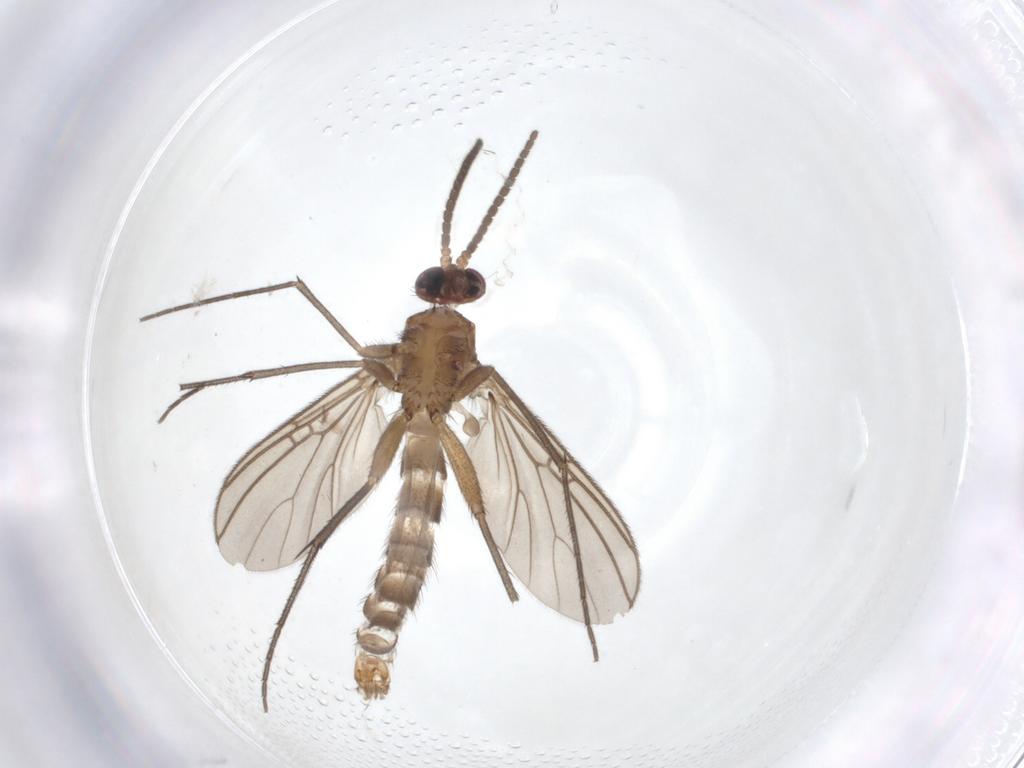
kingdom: Animalia
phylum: Arthropoda
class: Insecta
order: Diptera
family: Mycetophilidae
